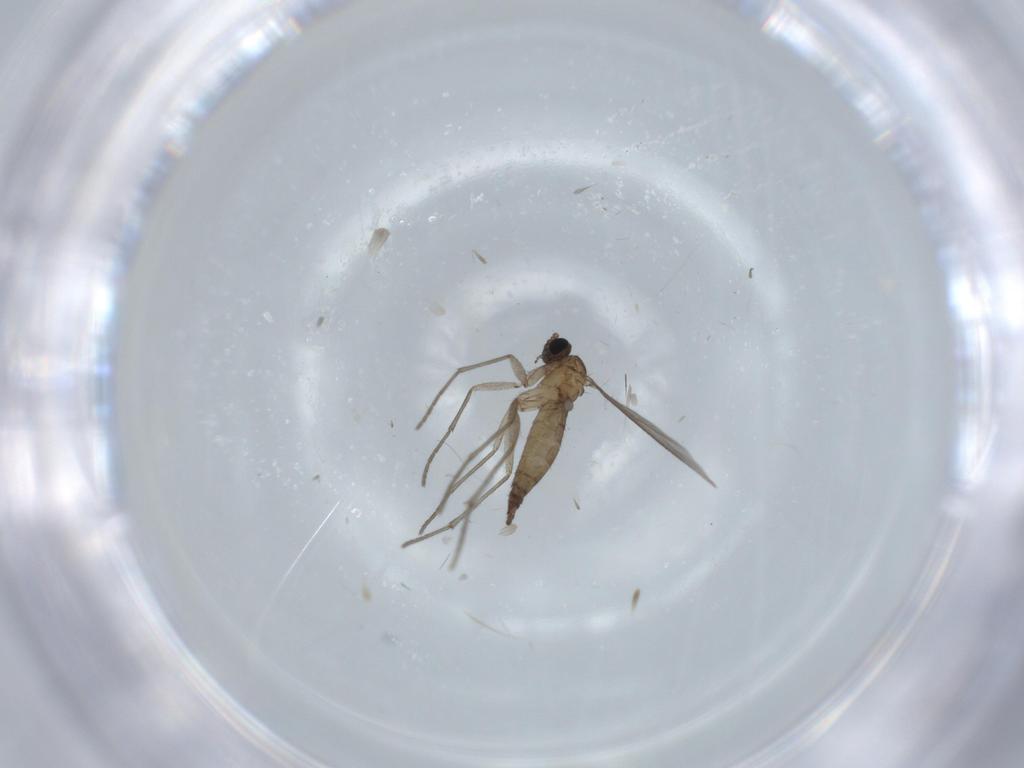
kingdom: Animalia
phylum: Arthropoda
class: Insecta
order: Diptera
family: Sciaridae
